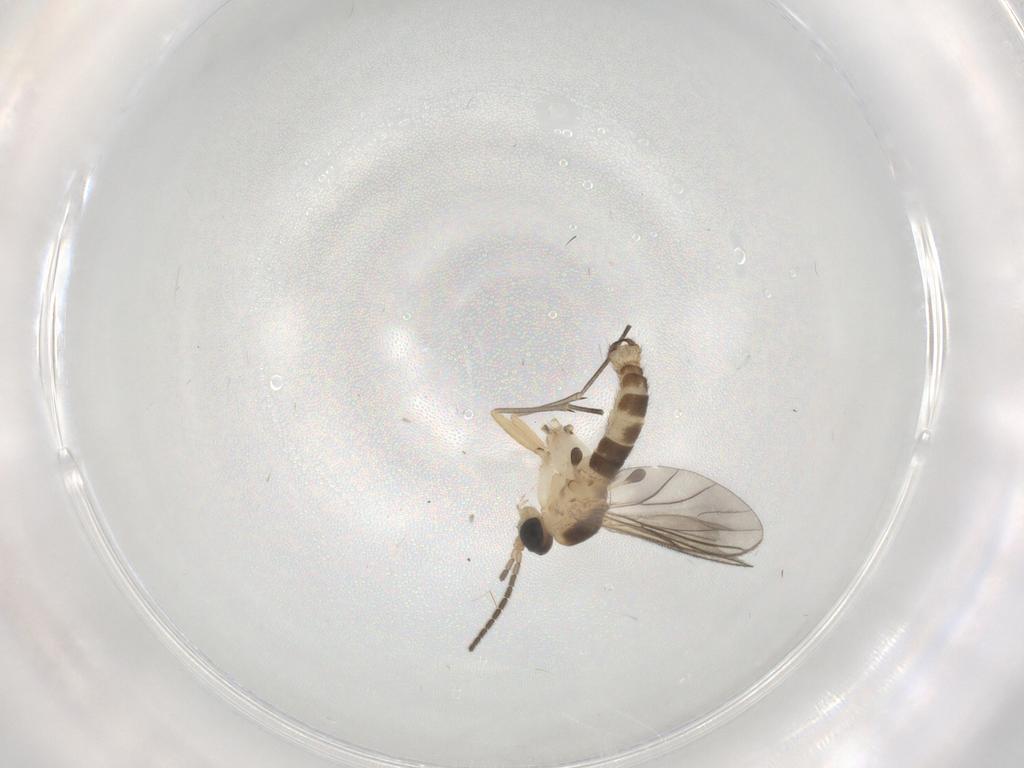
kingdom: Animalia
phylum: Arthropoda
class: Insecta
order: Diptera
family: Sciaridae
